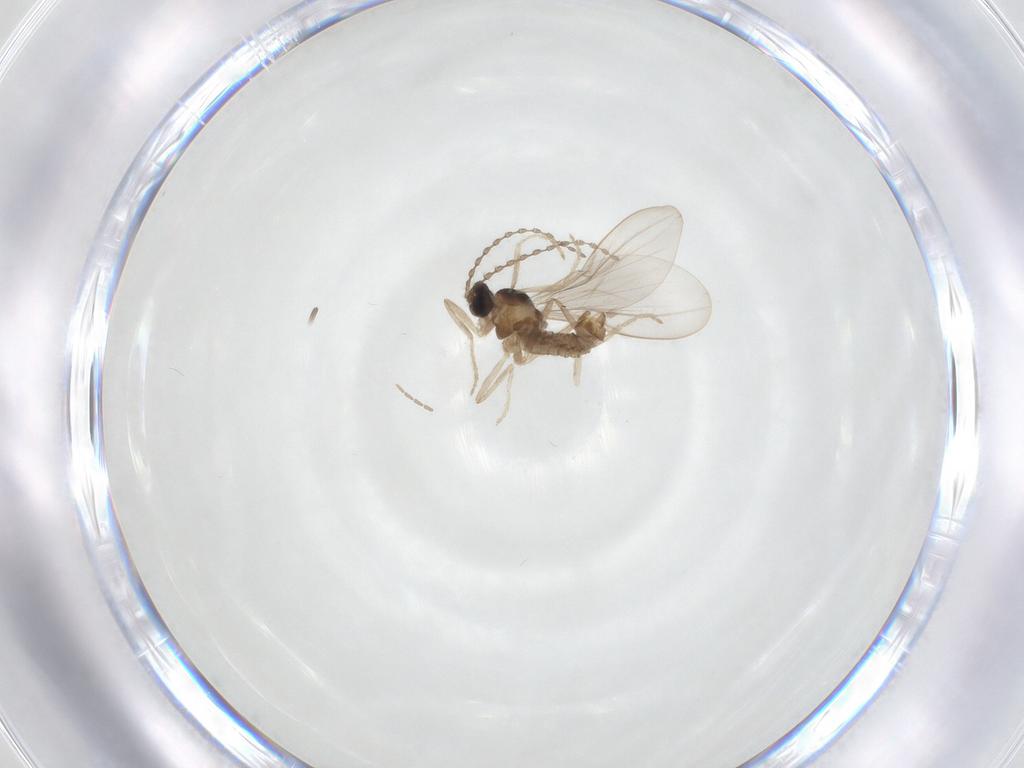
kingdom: Animalia
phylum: Arthropoda
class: Insecta
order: Diptera
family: Cecidomyiidae
